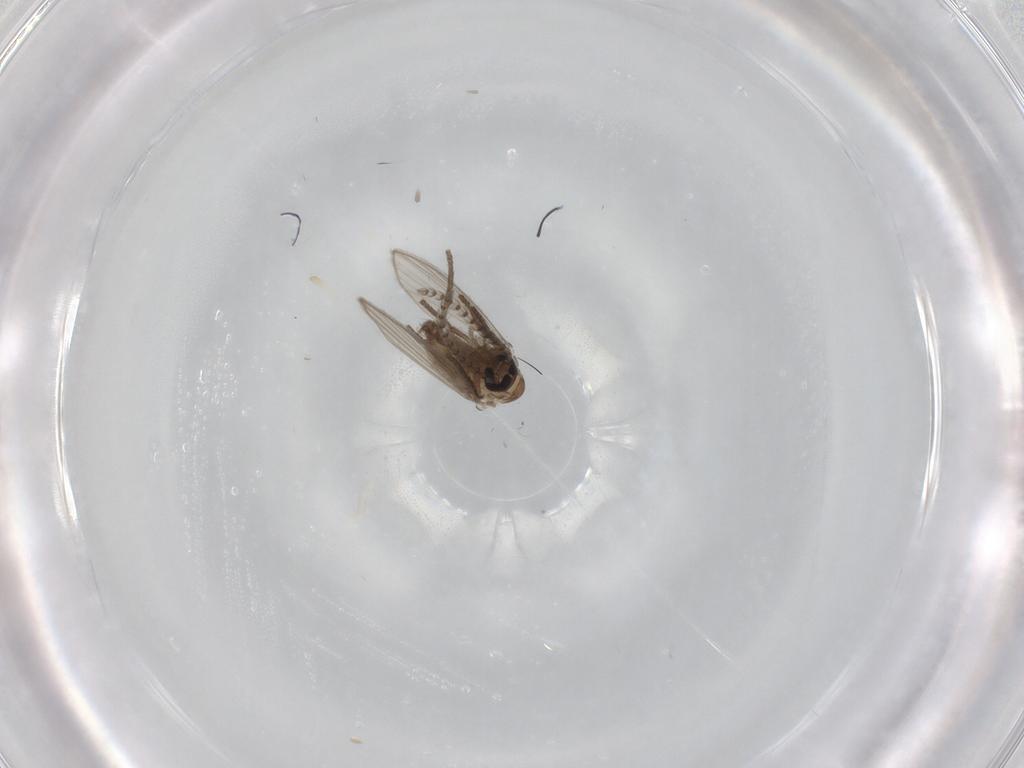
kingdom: Animalia
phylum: Arthropoda
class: Insecta
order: Diptera
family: Psychodidae
